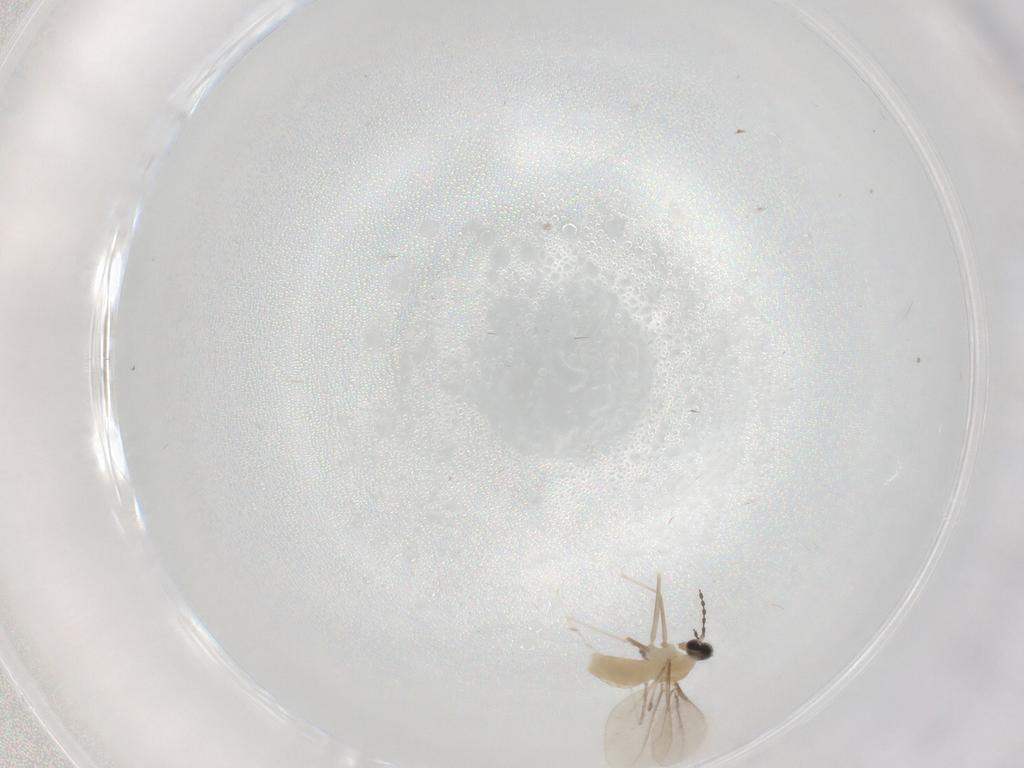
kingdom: Animalia
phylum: Arthropoda
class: Insecta
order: Diptera
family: Cecidomyiidae
